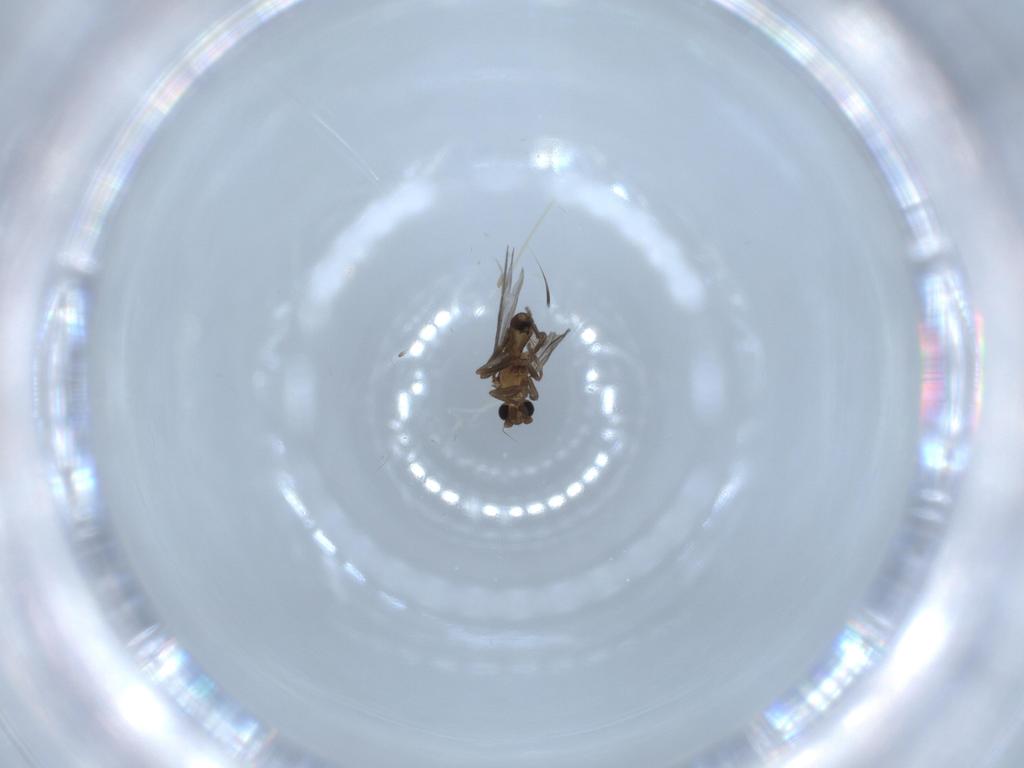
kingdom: Animalia
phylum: Arthropoda
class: Insecta
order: Diptera
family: Phoridae
